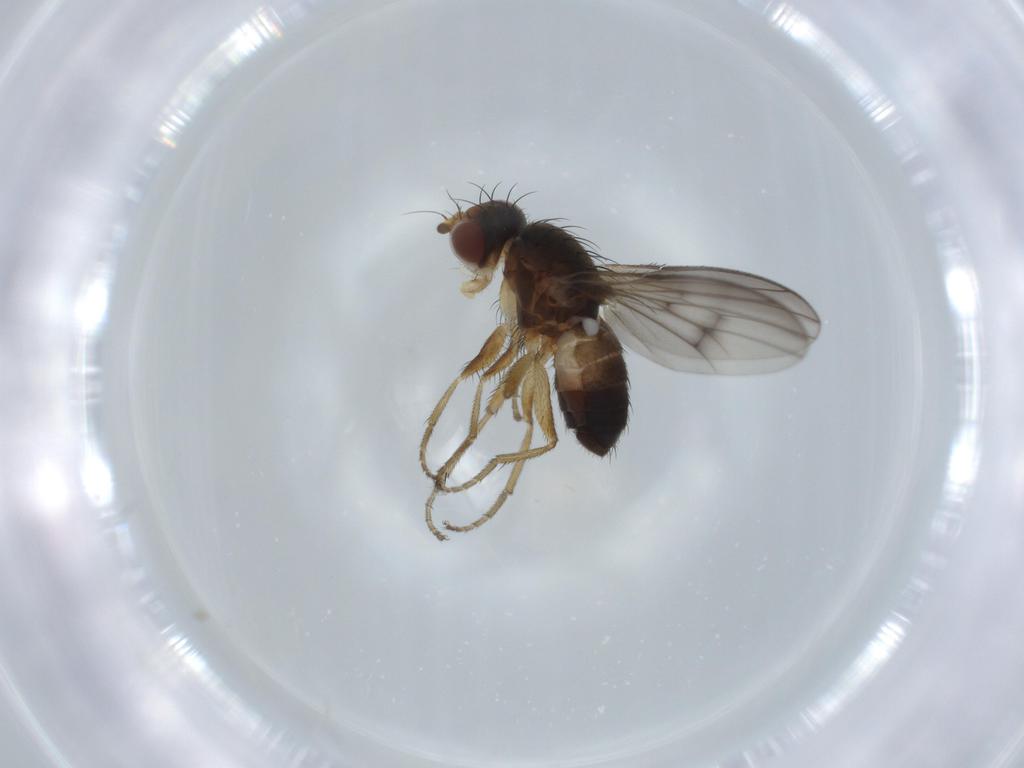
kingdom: Animalia
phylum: Arthropoda
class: Insecta
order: Diptera
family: Heleomyzidae
